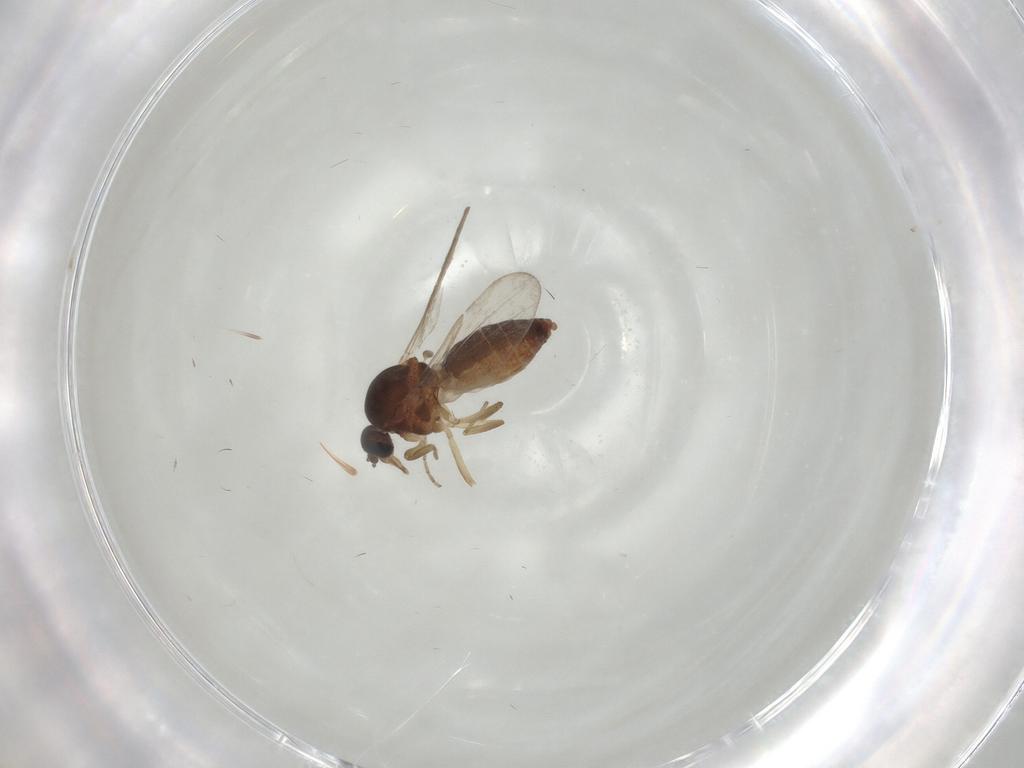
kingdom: Animalia
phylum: Arthropoda
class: Insecta
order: Diptera
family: Ceratopogonidae
